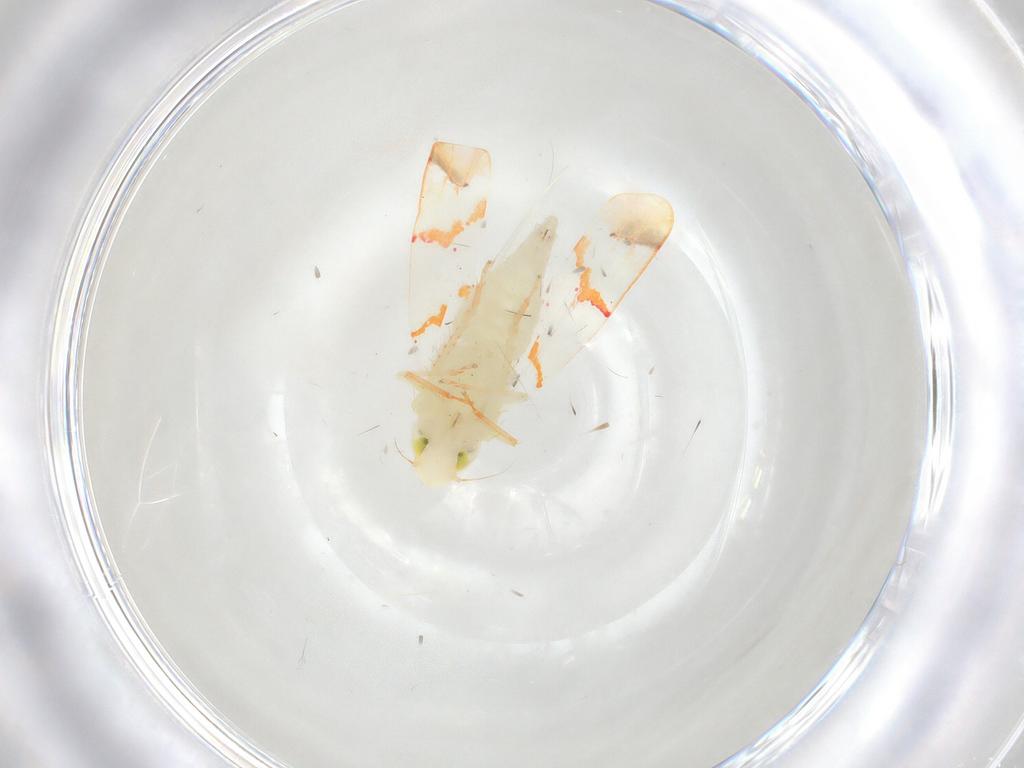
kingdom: Animalia
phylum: Arthropoda
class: Insecta
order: Hemiptera
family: Cicadellidae
